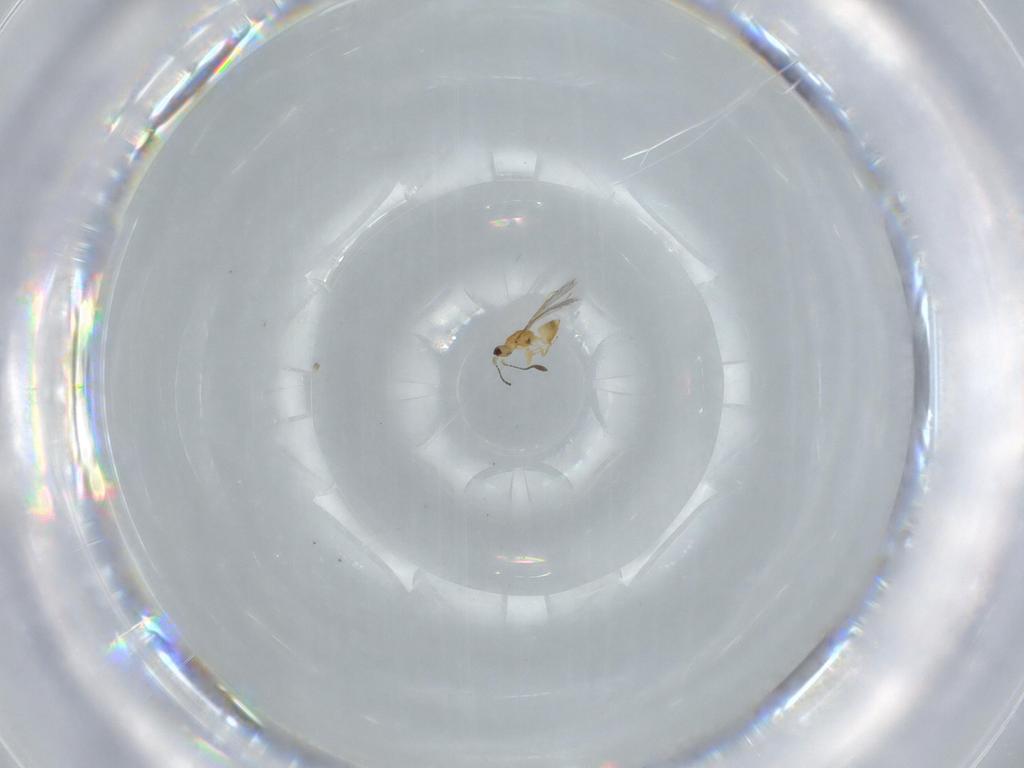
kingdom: Animalia
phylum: Arthropoda
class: Insecta
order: Hymenoptera
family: Mymaridae
